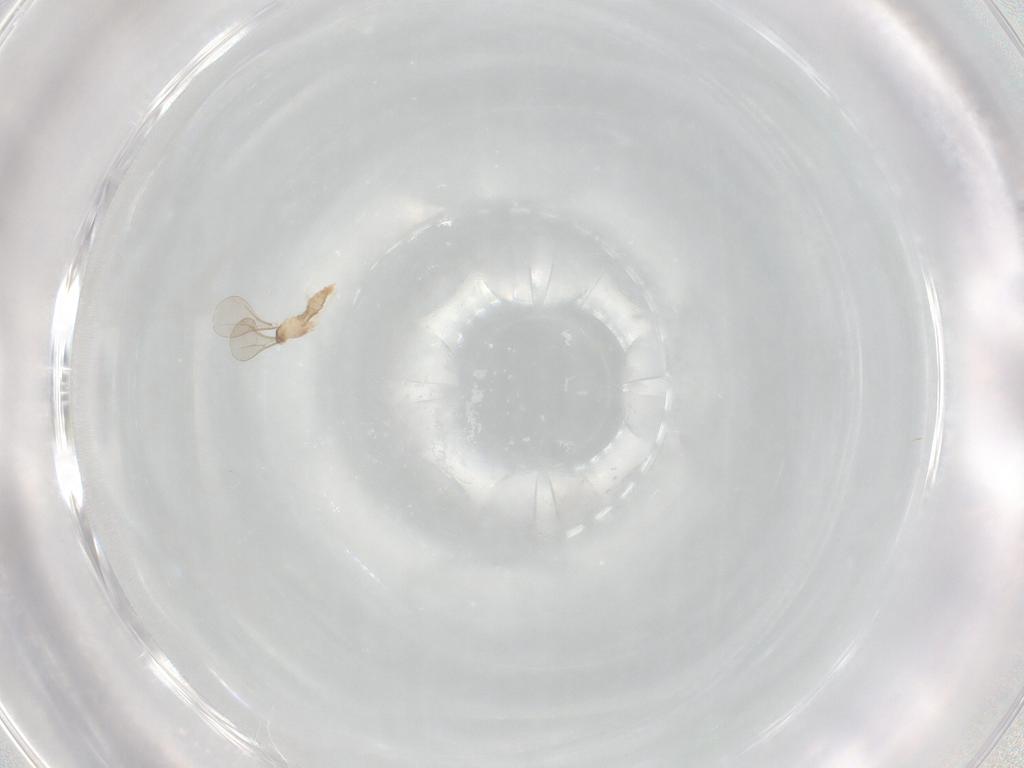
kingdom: Animalia
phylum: Arthropoda
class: Insecta
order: Diptera
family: Cecidomyiidae
